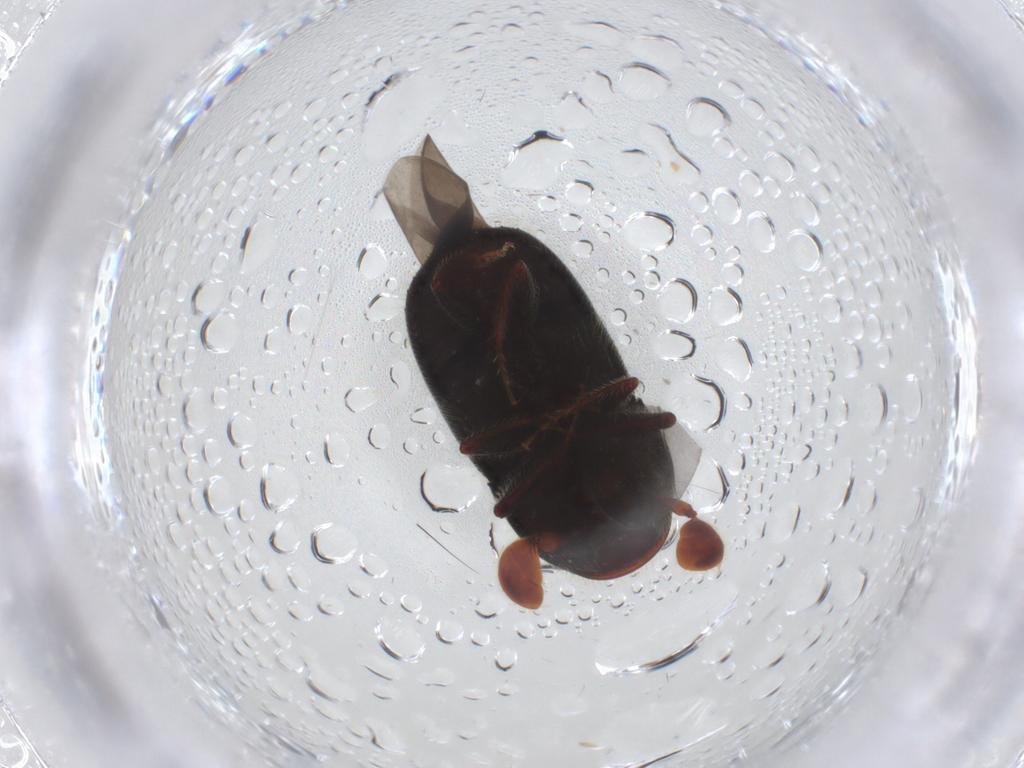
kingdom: Animalia
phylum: Arthropoda
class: Insecta
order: Coleoptera
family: Curculionidae
